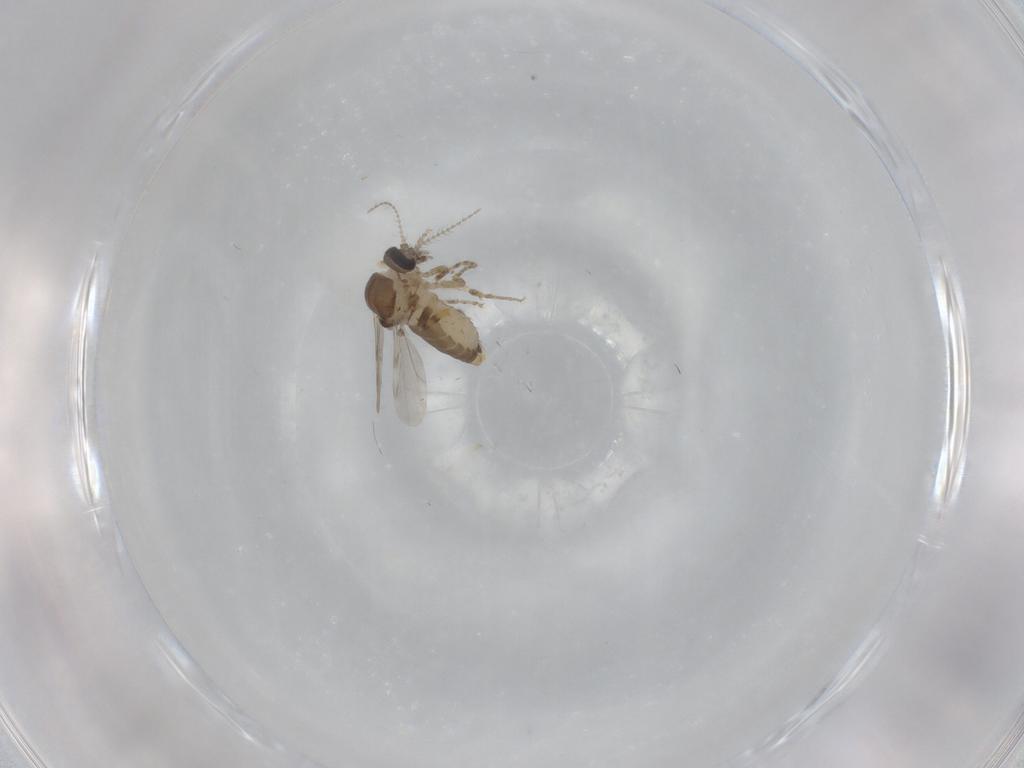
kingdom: Animalia
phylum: Arthropoda
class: Insecta
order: Diptera
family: Ceratopogonidae
